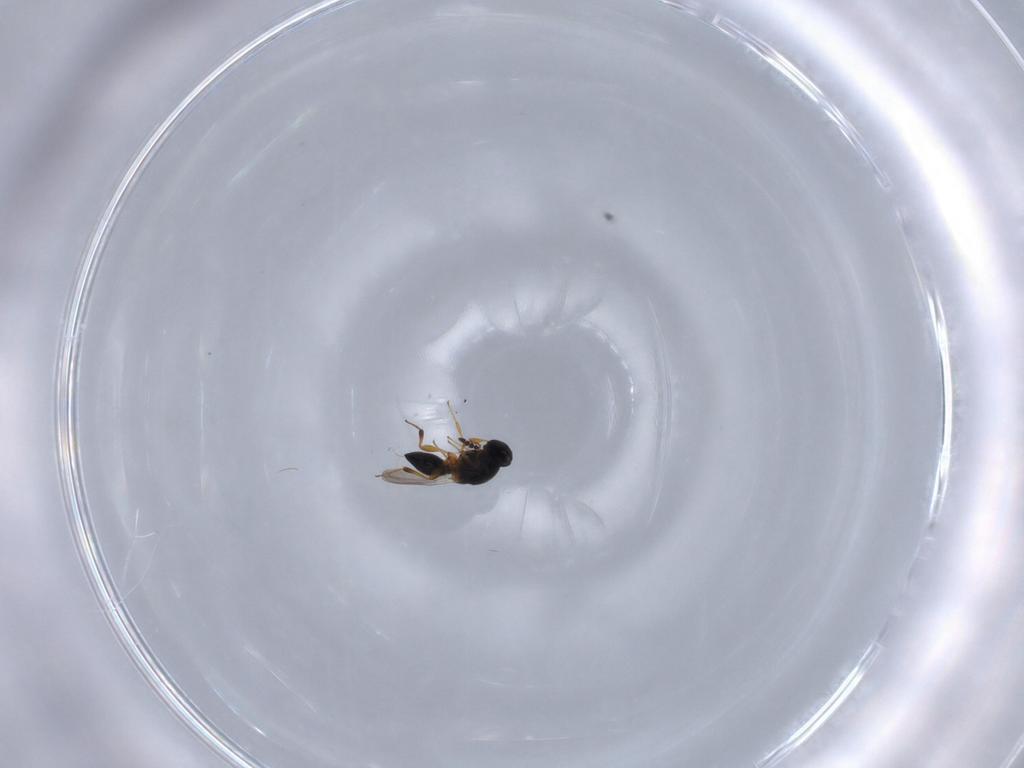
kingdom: Animalia
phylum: Arthropoda
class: Insecta
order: Hymenoptera
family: Platygastridae
